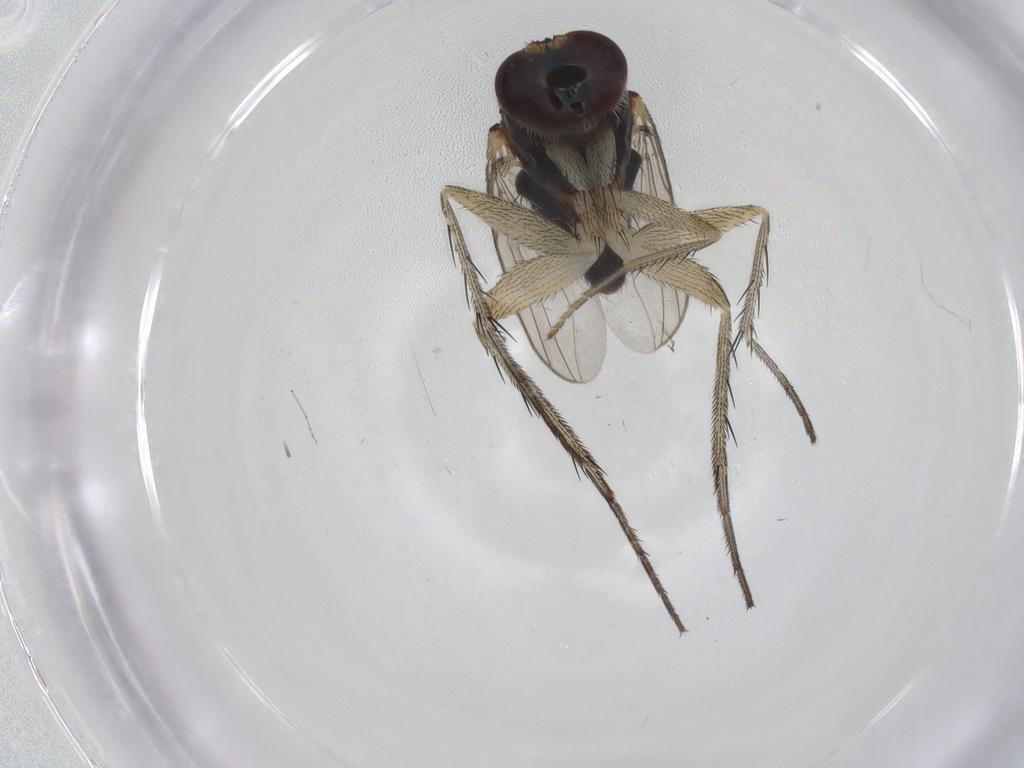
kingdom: Animalia
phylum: Arthropoda
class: Insecta
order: Diptera
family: Dolichopodidae
